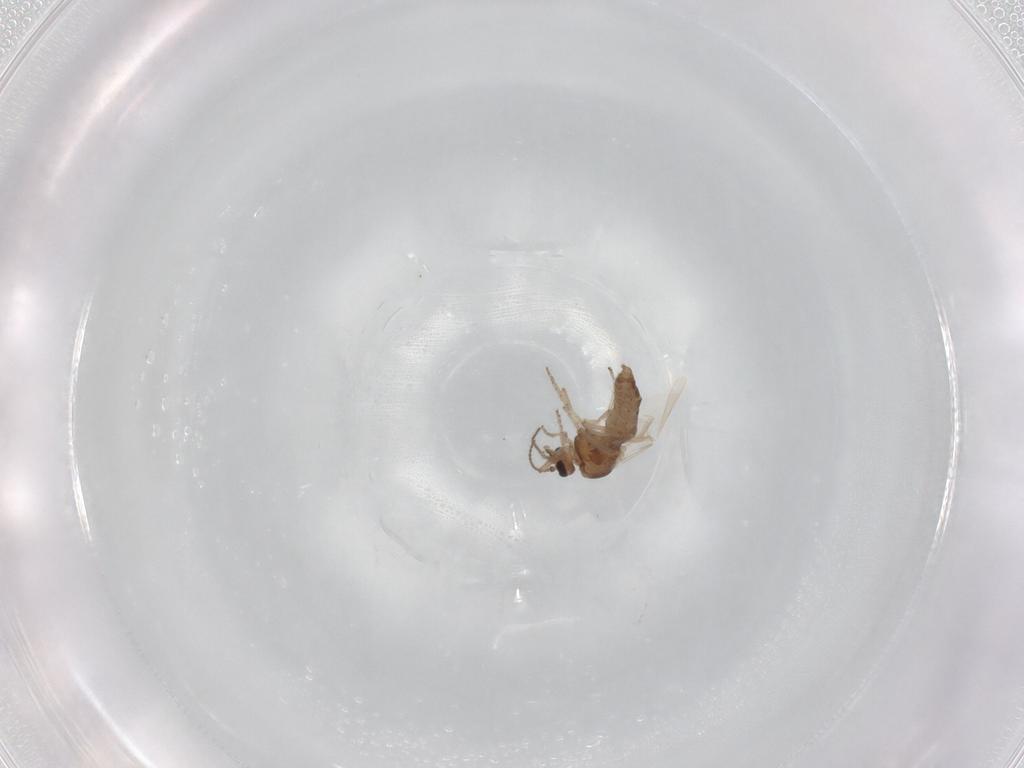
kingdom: Animalia
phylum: Arthropoda
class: Insecta
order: Diptera
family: Ceratopogonidae
